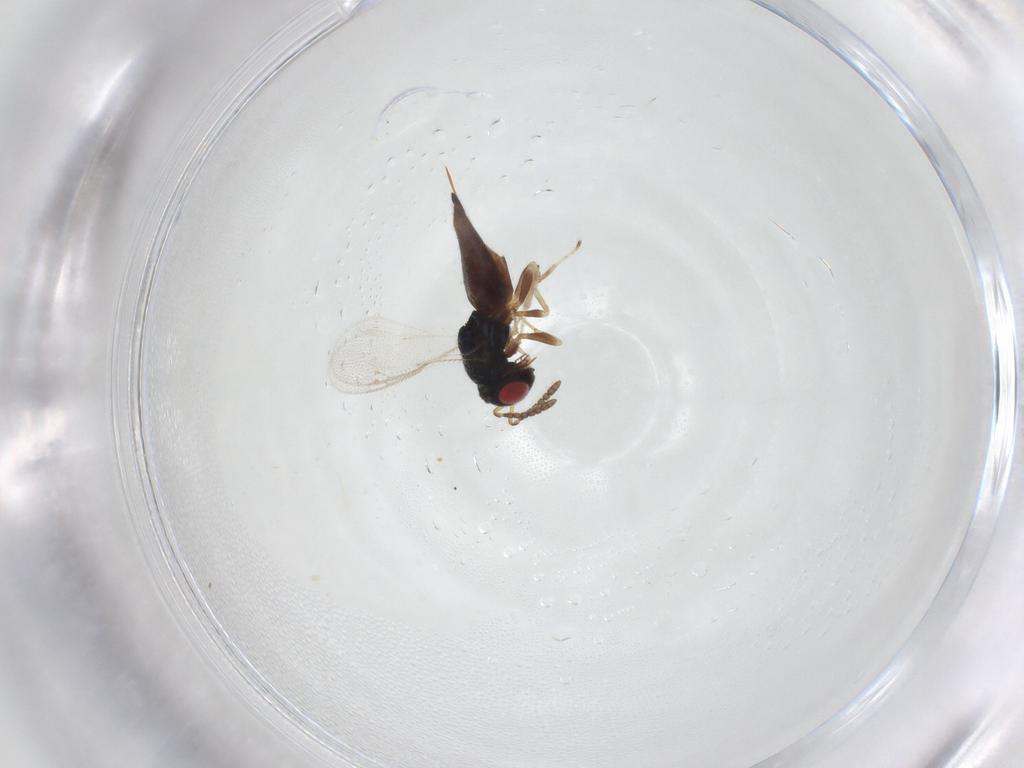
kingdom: Animalia
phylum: Arthropoda
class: Insecta
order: Hymenoptera
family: Pteromalidae
